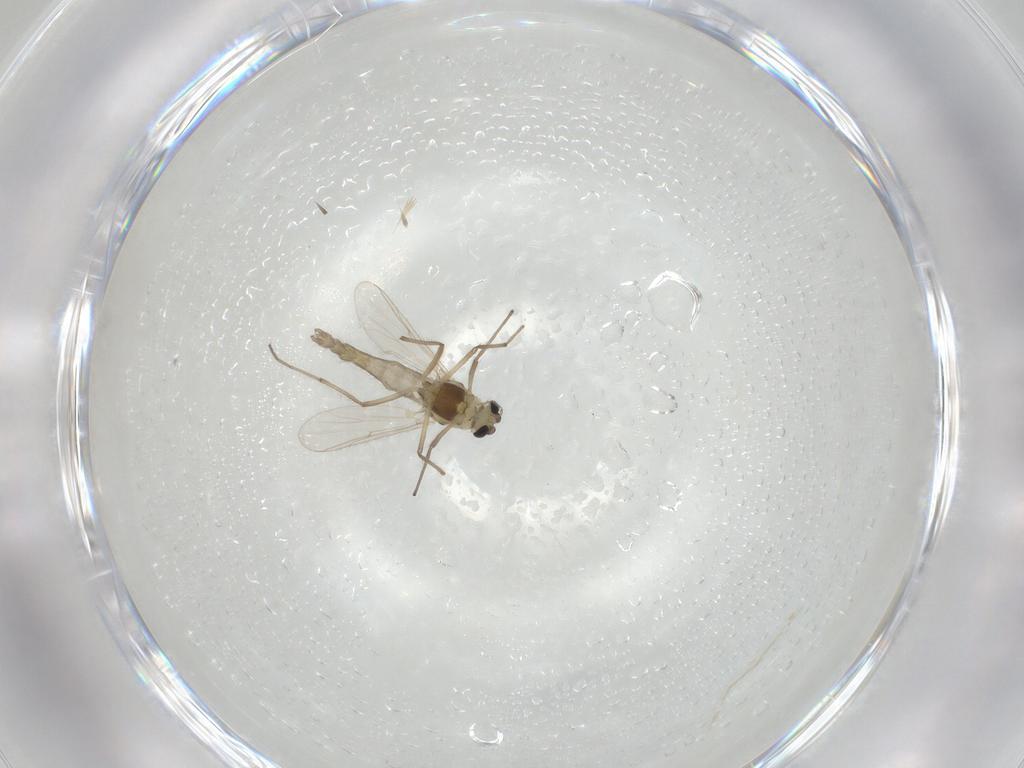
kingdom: Animalia
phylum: Arthropoda
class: Insecta
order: Diptera
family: Chironomidae
